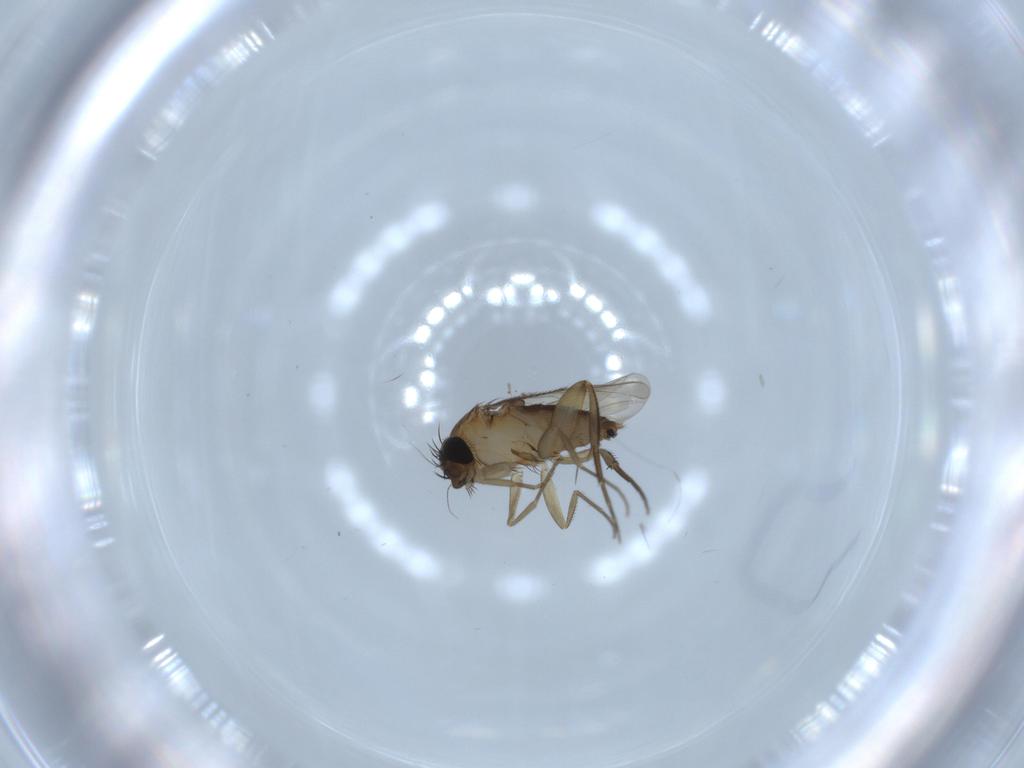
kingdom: Animalia
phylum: Arthropoda
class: Insecta
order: Diptera
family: Phoridae
